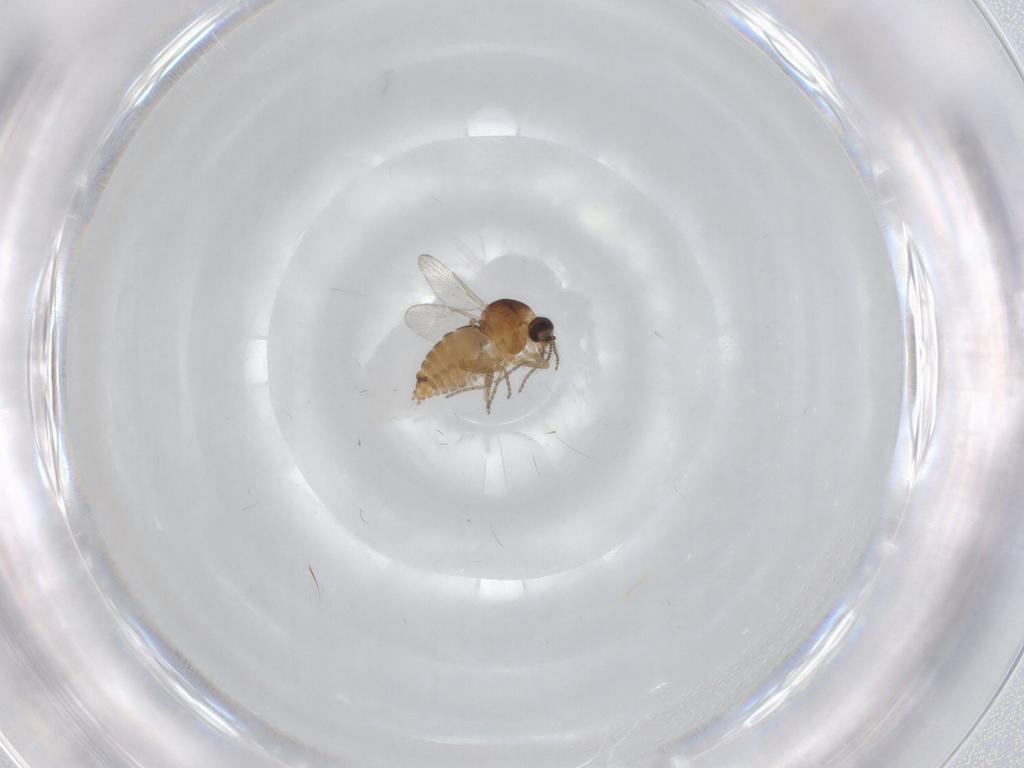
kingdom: Animalia
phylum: Arthropoda
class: Insecta
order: Diptera
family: Ceratopogonidae
